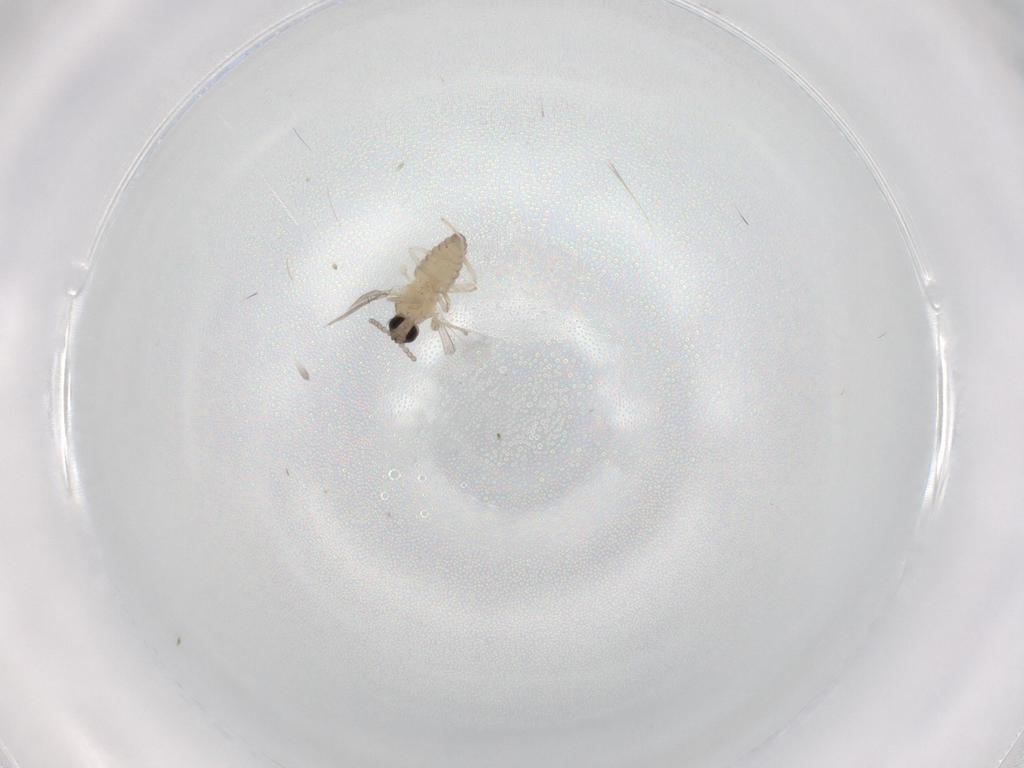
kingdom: Animalia
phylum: Arthropoda
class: Insecta
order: Diptera
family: Cecidomyiidae
